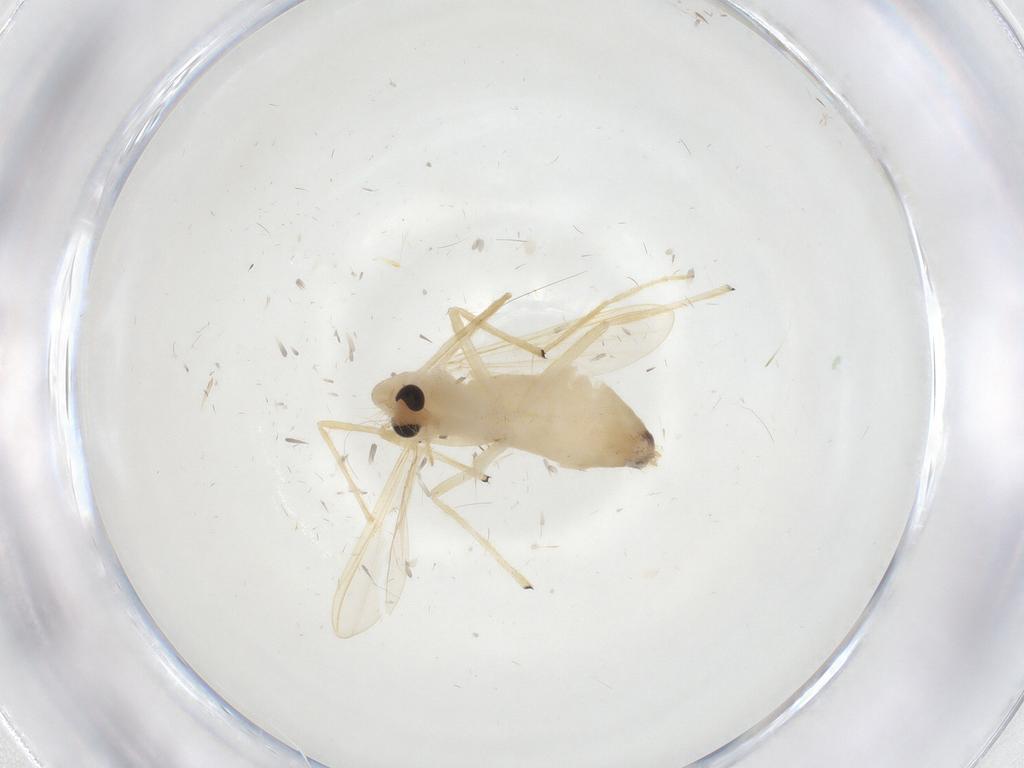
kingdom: Animalia
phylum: Arthropoda
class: Insecta
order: Diptera
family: Chironomidae
